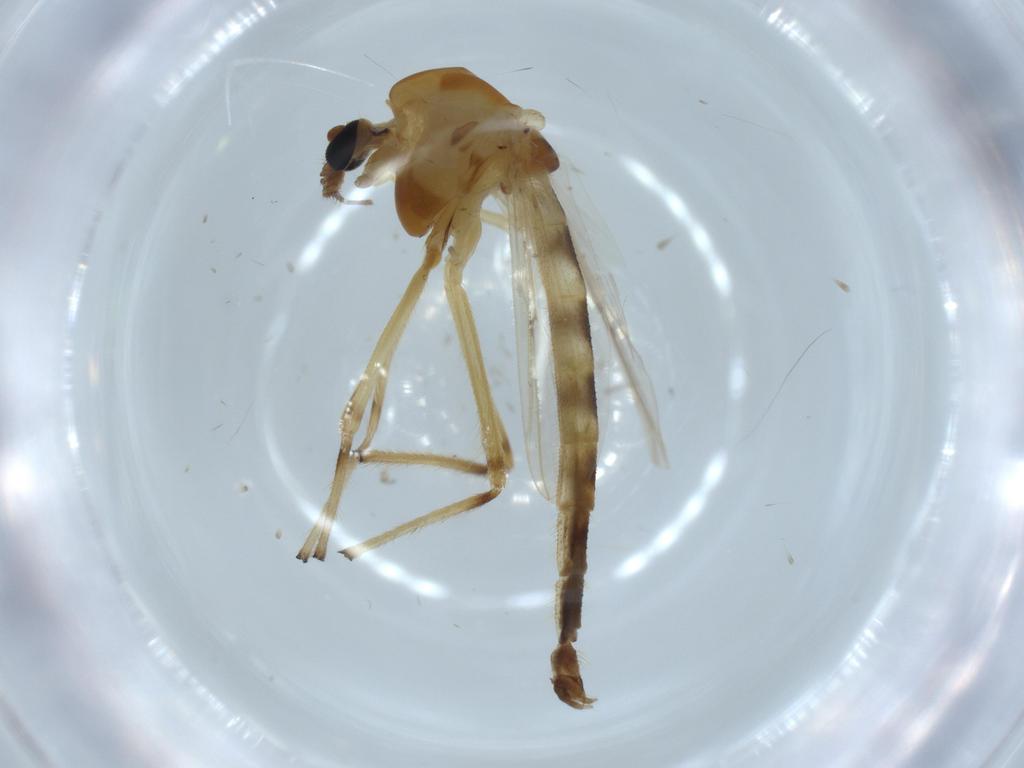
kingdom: Animalia
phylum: Arthropoda
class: Insecta
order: Diptera
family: Chironomidae
